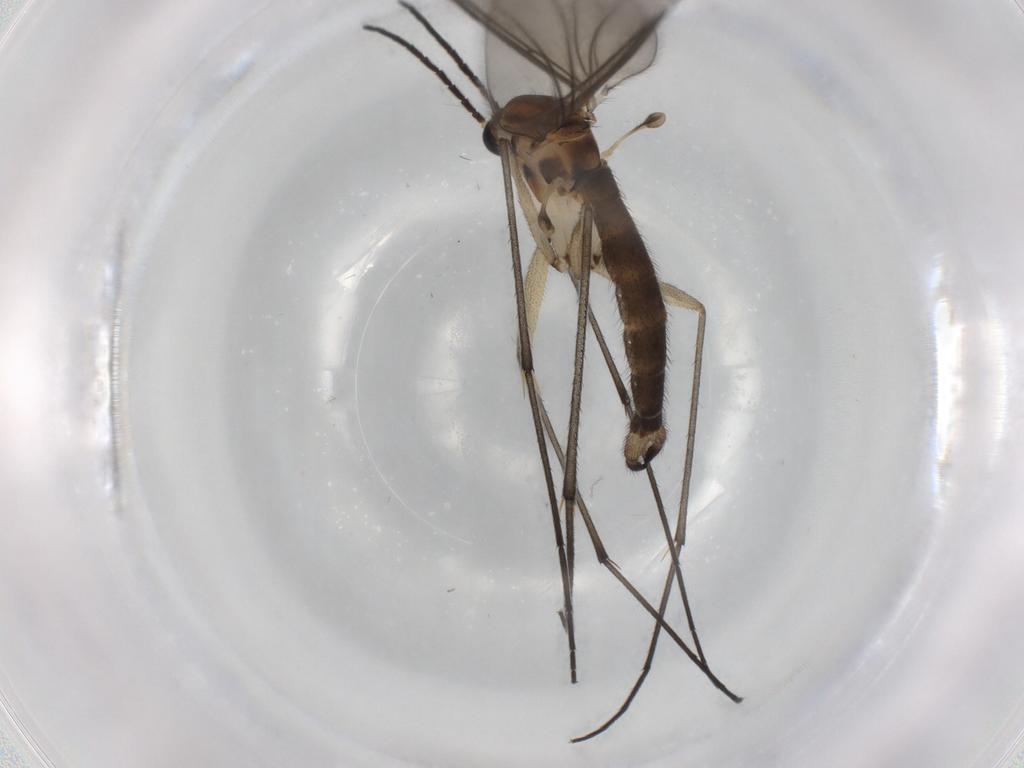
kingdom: Animalia
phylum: Arthropoda
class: Insecta
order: Diptera
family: Sciaridae
